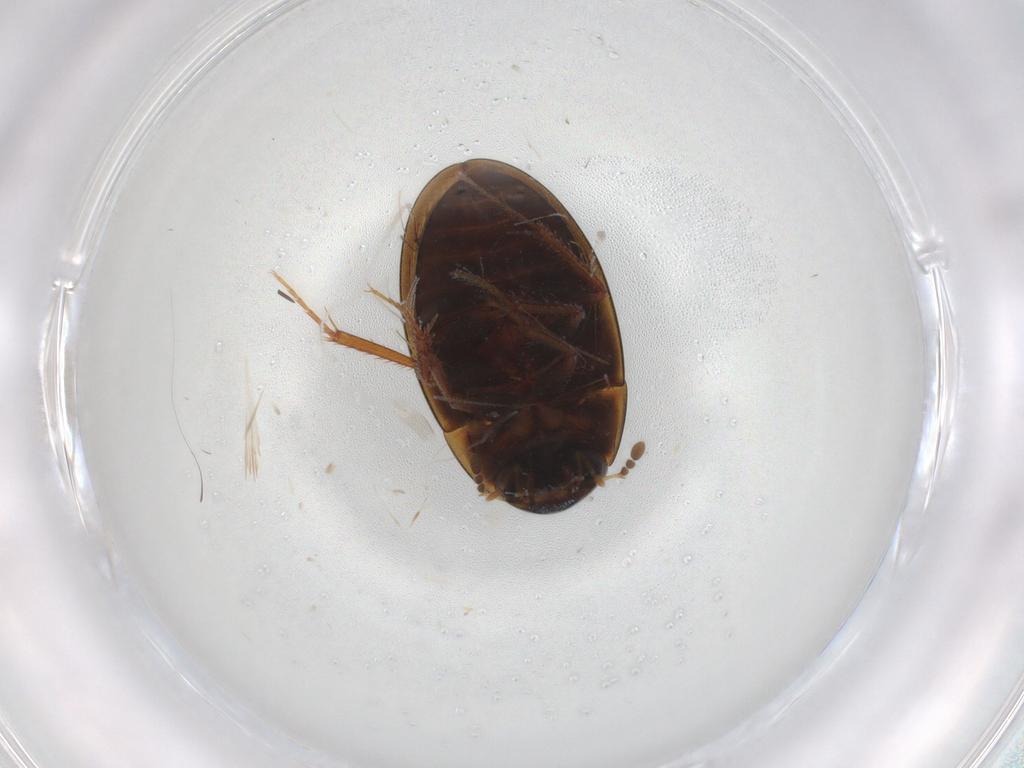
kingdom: Animalia
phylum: Arthropoda
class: Insecta
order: Coleoptera
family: Hydrophilidae
